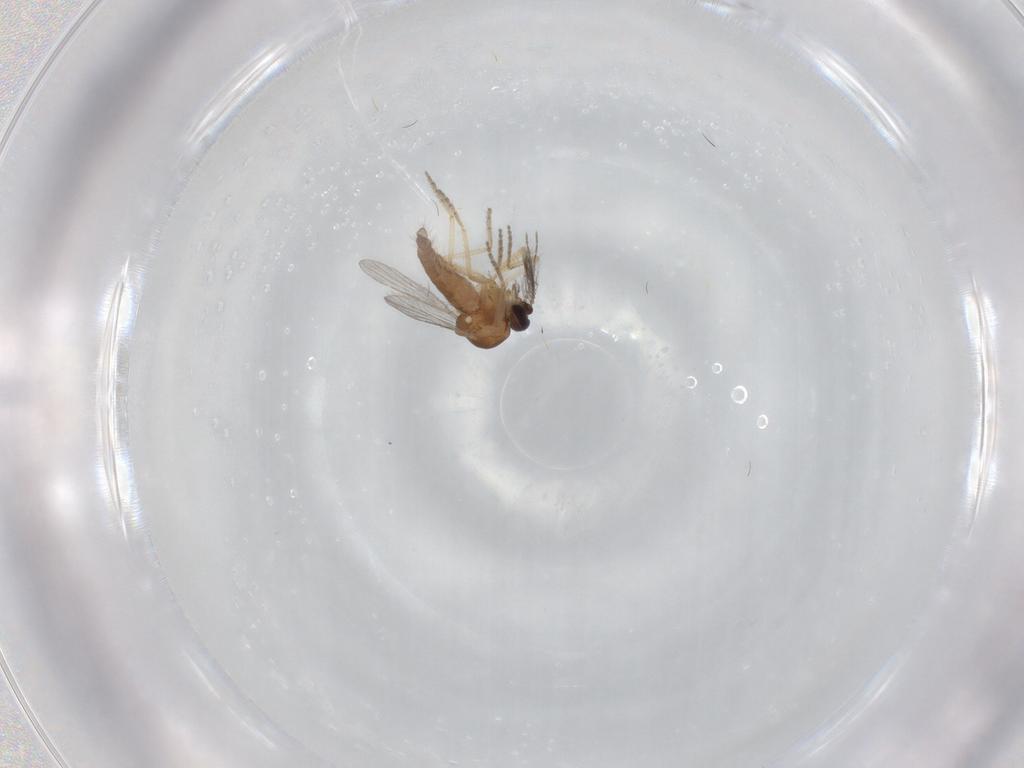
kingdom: Animalia
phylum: Arthropoda
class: Insecta
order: Diptera
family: Ceratopogonidae
